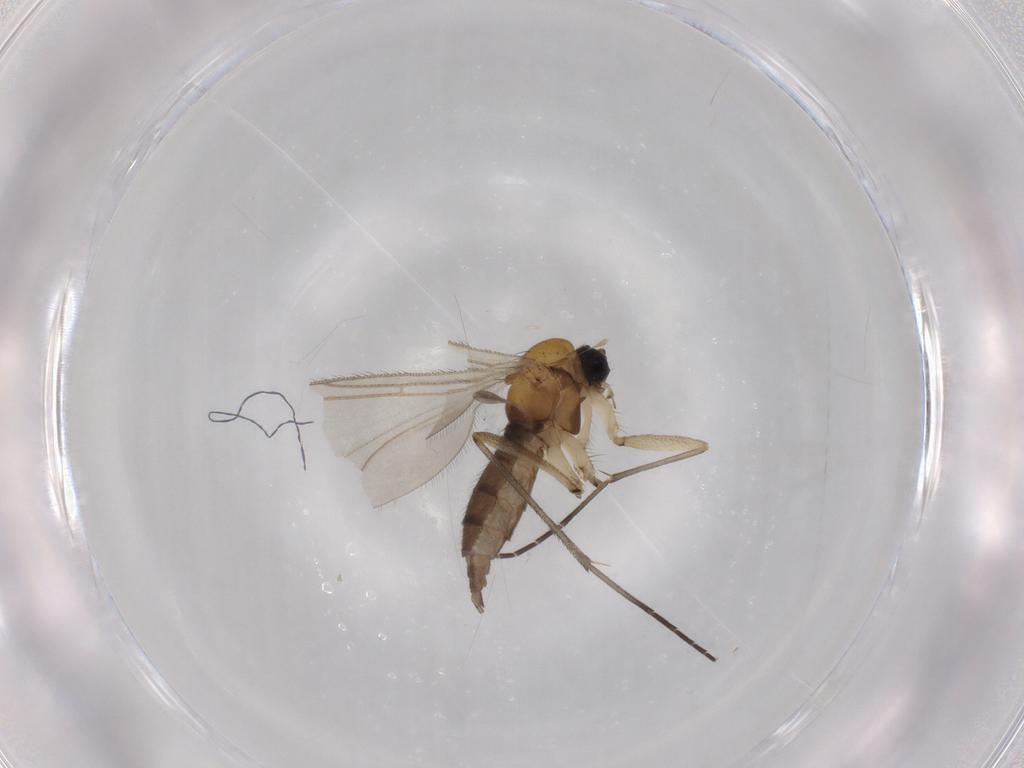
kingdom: Animalia
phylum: Arthropoda
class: Insecta
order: Diptera
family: Sciaridae
